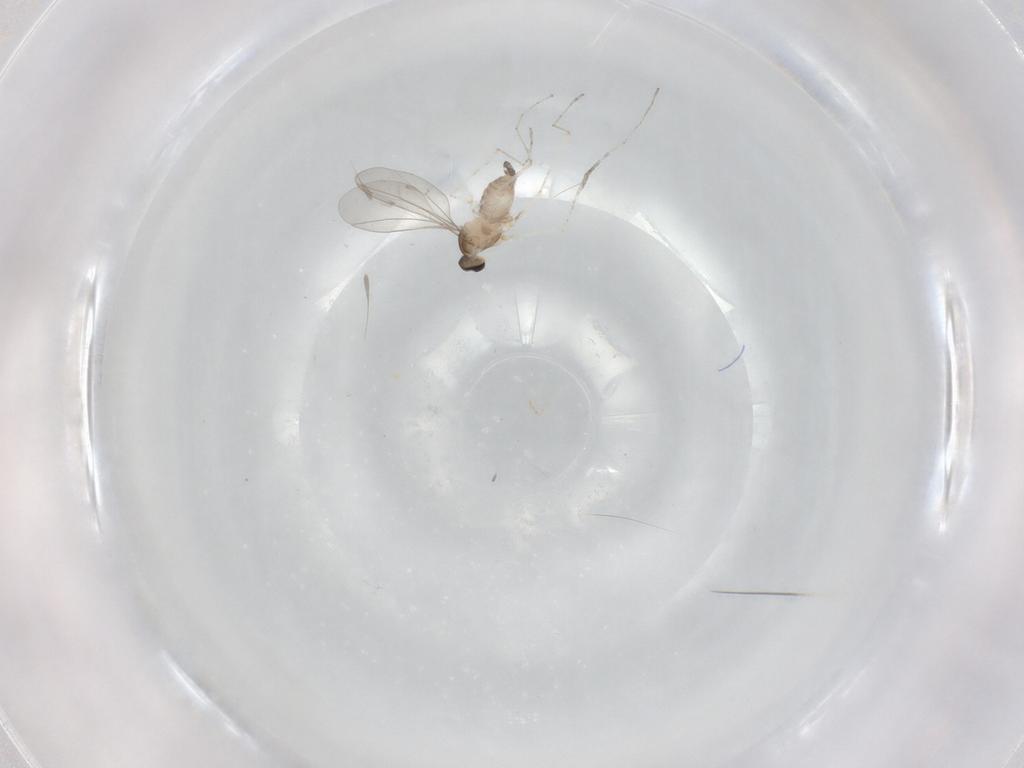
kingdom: Animalia
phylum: Arthropoda
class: Insecta
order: Diptera
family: Cecidomyiidae
